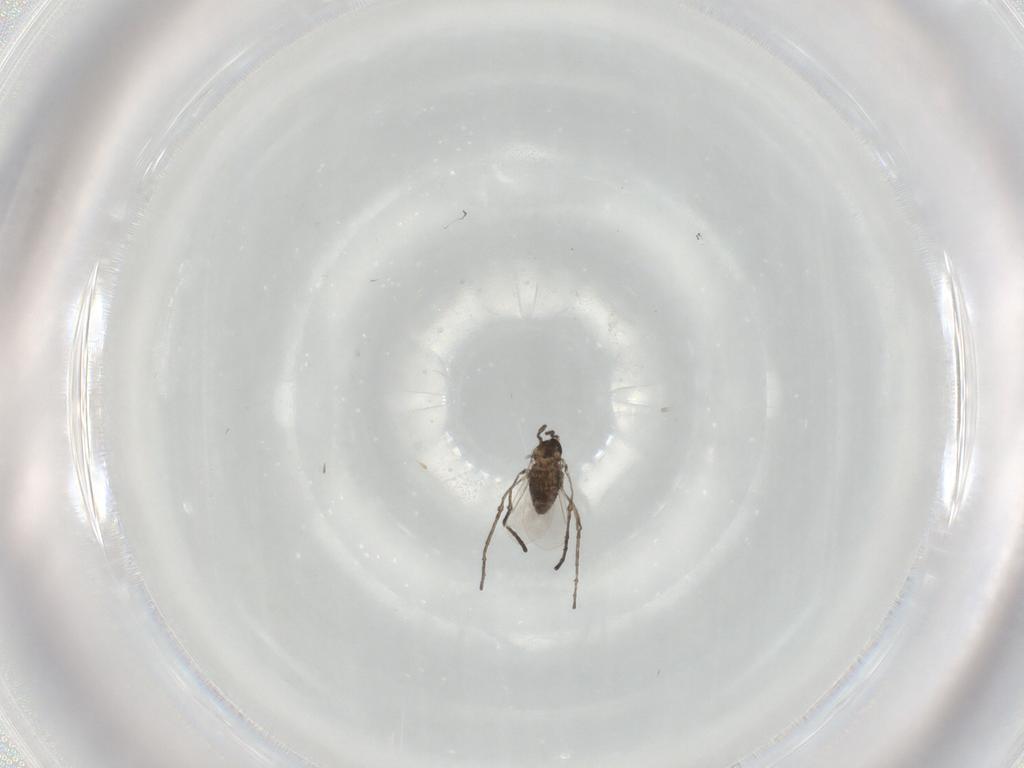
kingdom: Animalia
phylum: Arthropoda
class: Insecta
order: Diptera
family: Cecidomyiidae
